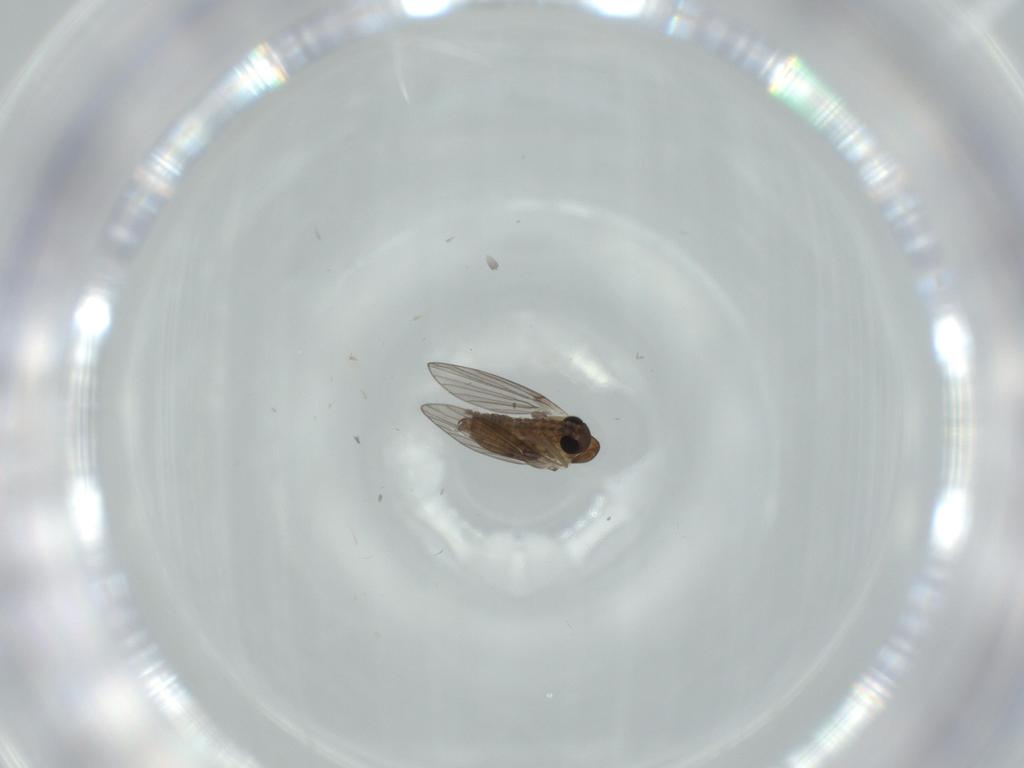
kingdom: Animalia
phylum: Arthropoda
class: Insecta
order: Diptera
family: Psychodidae
